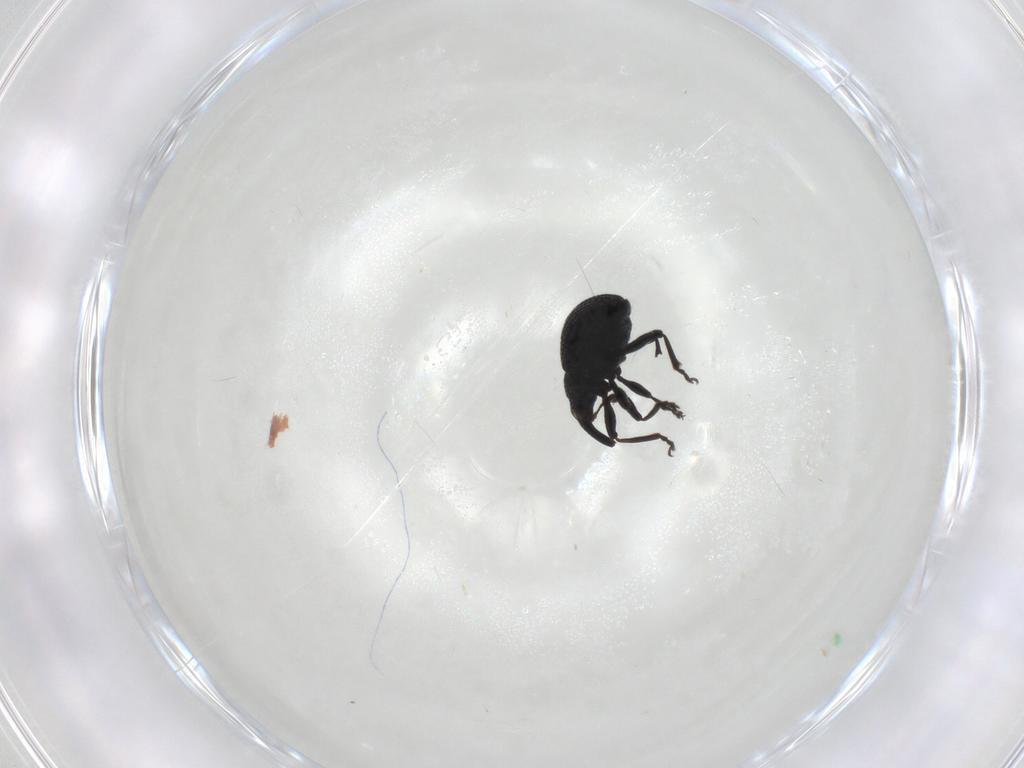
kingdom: Animalia
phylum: Arthropoda
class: Insecta
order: Coleoptera
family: Brentidae
